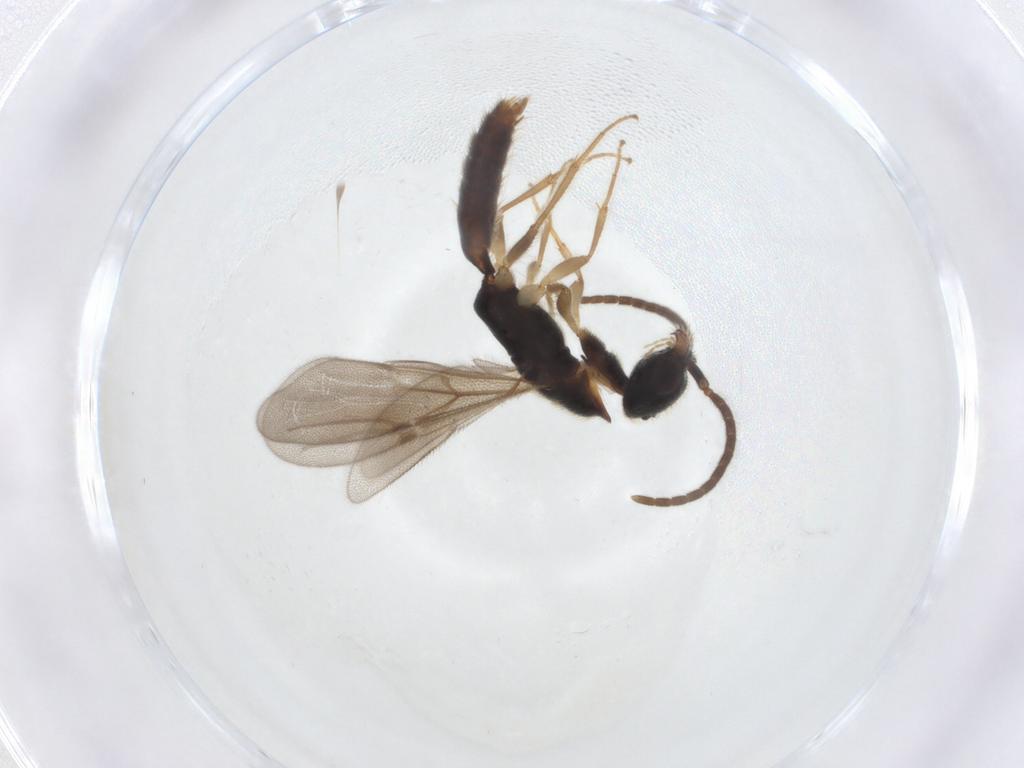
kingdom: Animalia
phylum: Arthropoda
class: Insecta
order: Hymenoptera
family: Bethylidae
